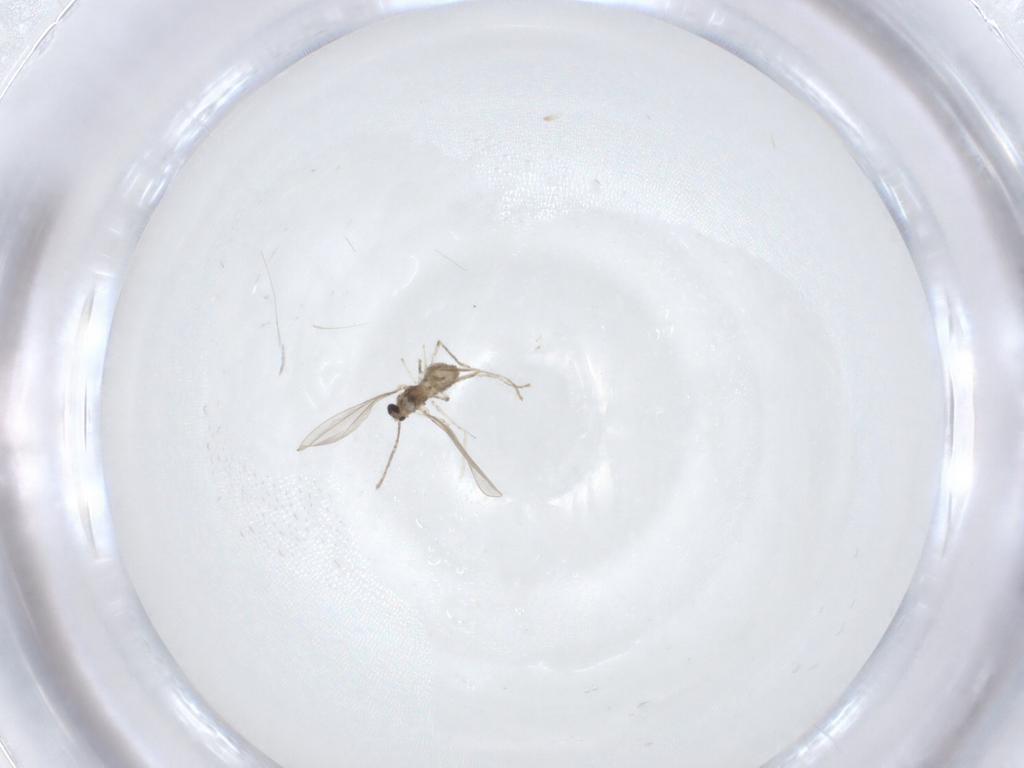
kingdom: Animalia
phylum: Arthropoda
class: Insecta
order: Diptera
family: Cecidomyiidae
